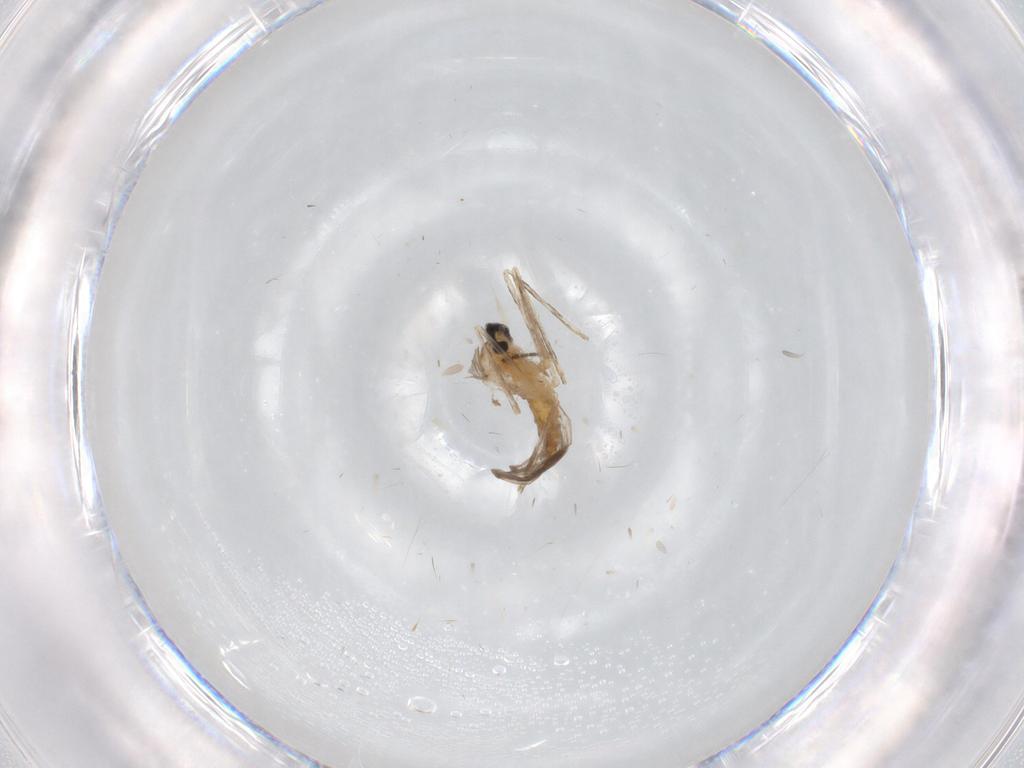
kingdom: Animalia
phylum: Arthropoda
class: Insecta
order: Diptera
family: Cecidomyiidae
